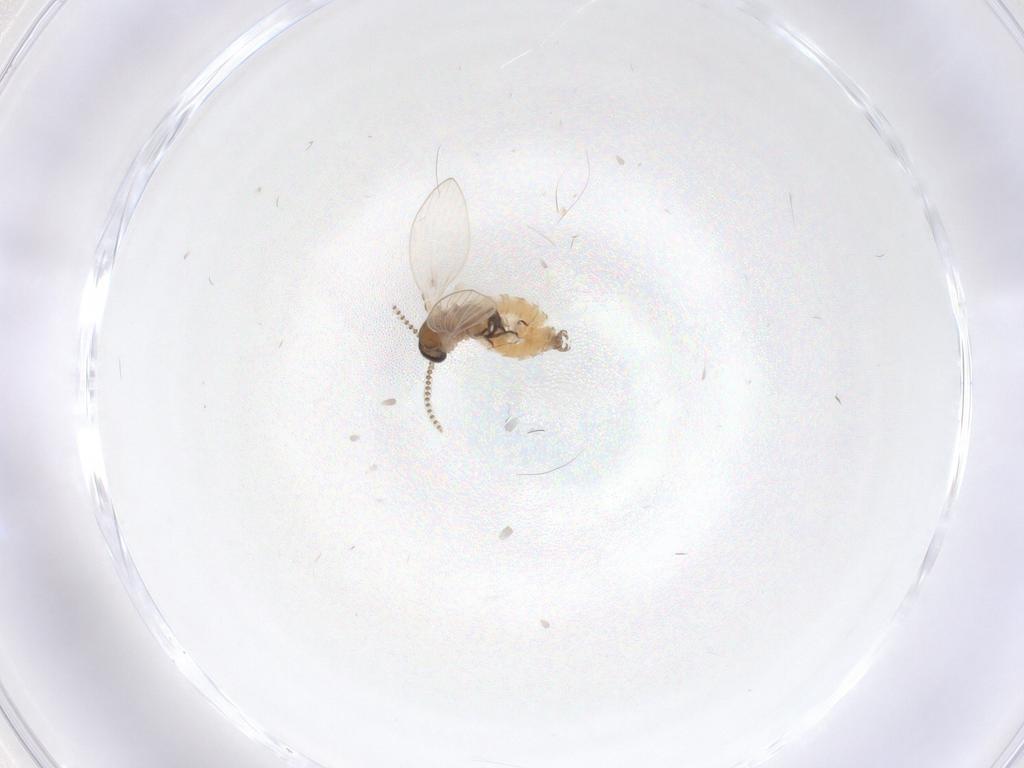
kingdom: Animalia
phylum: Arthropoda
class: Insecta
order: Diptera
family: Psychodidae
